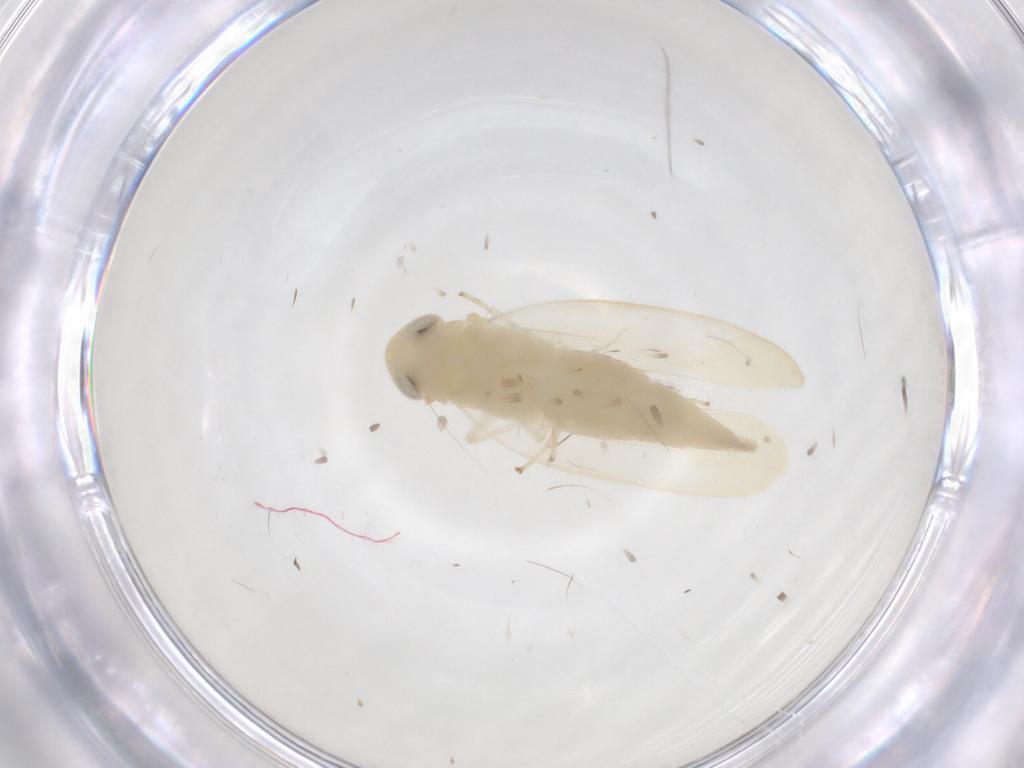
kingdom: Animalia
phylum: Arthropoda
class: Insecta
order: Hemiptera
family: Cicadellidae
